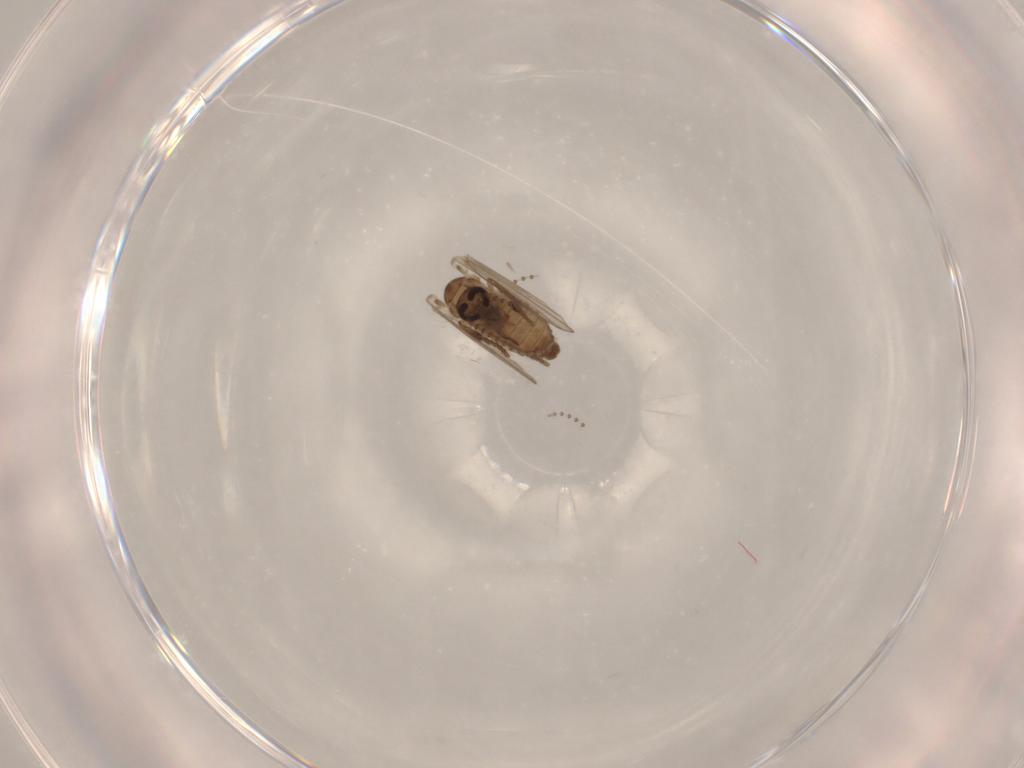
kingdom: Animalia
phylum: Arthropoda
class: Insecta
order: Diptera
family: Psychodidae
